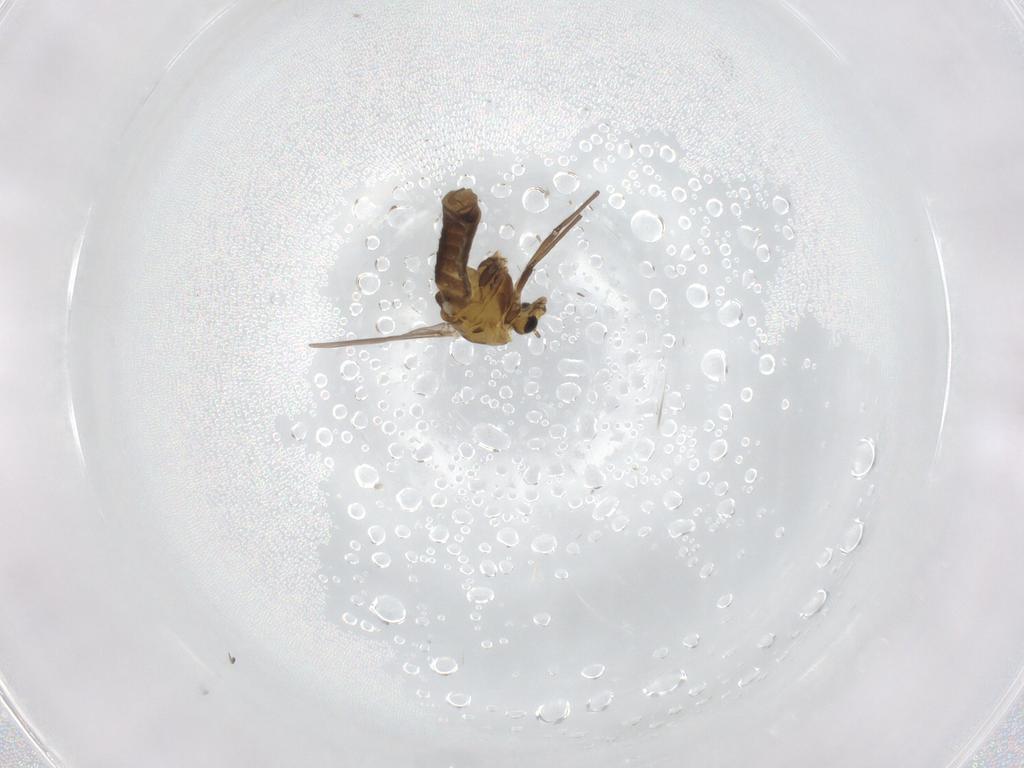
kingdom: Animalia
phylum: Arthropoda
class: Insecta
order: Diptera
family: Chironomidae
